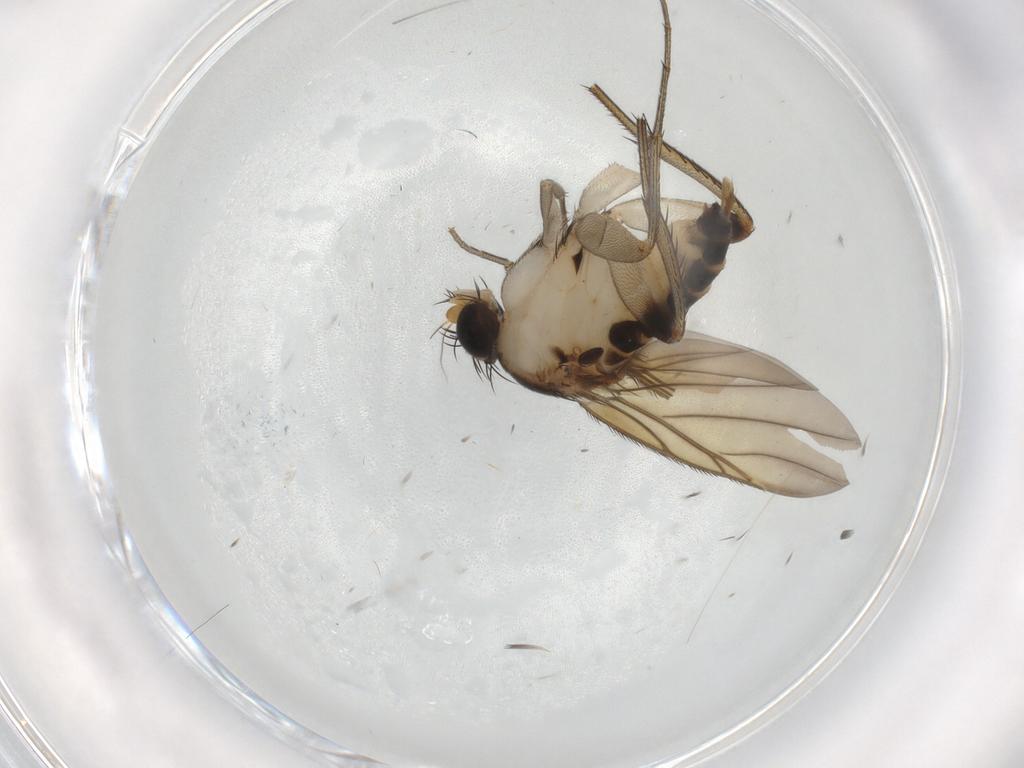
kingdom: Animalia
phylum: Arthropoda
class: Insecta
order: Diptera
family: Phoridae
